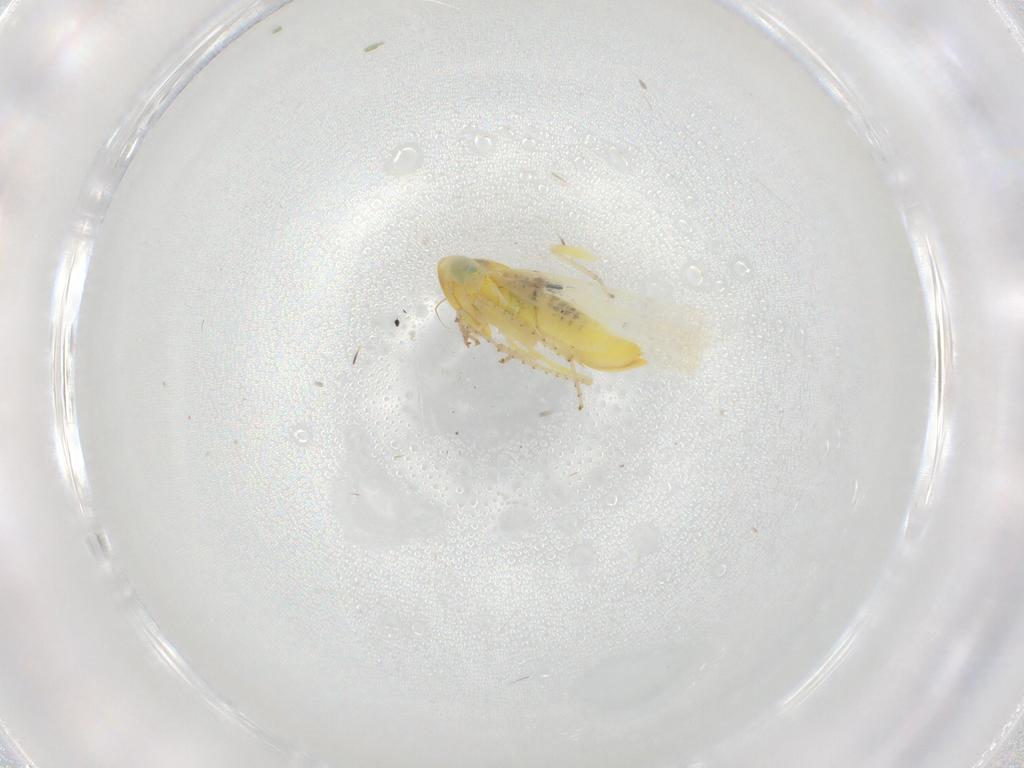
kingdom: Animalia
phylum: Arthropoda
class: Insecta
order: Hemiptera
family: Cicadellidae
